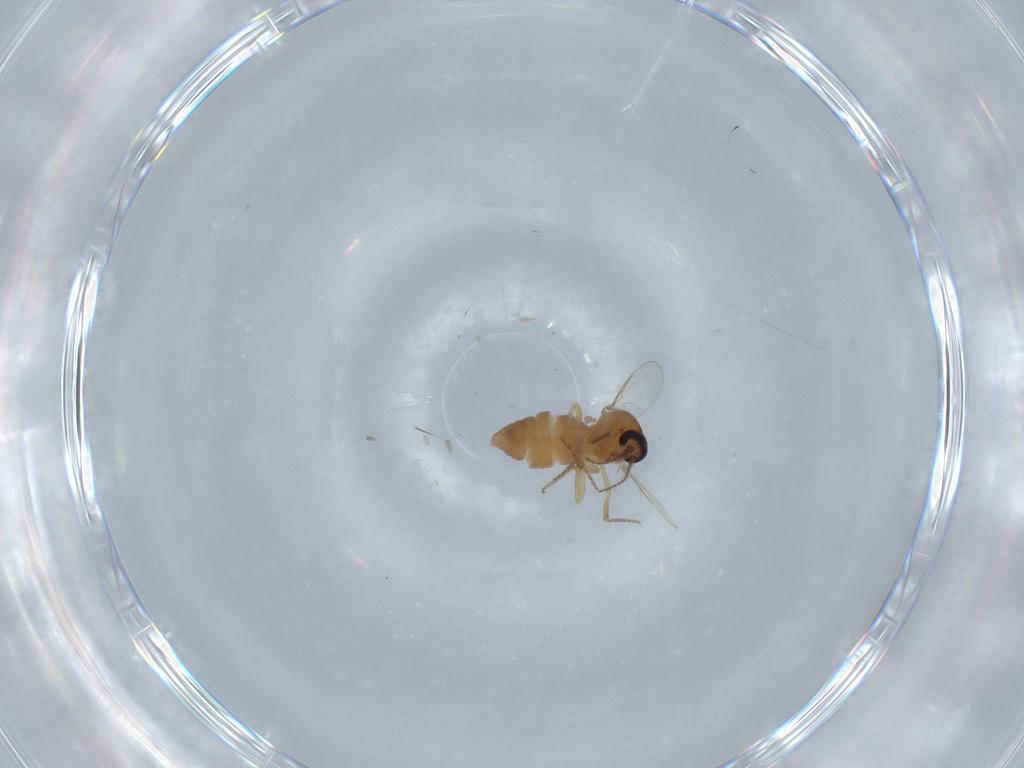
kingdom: Animalia
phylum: Arthropoda
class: Insecta
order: Diptera
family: Ceratopogonidae
